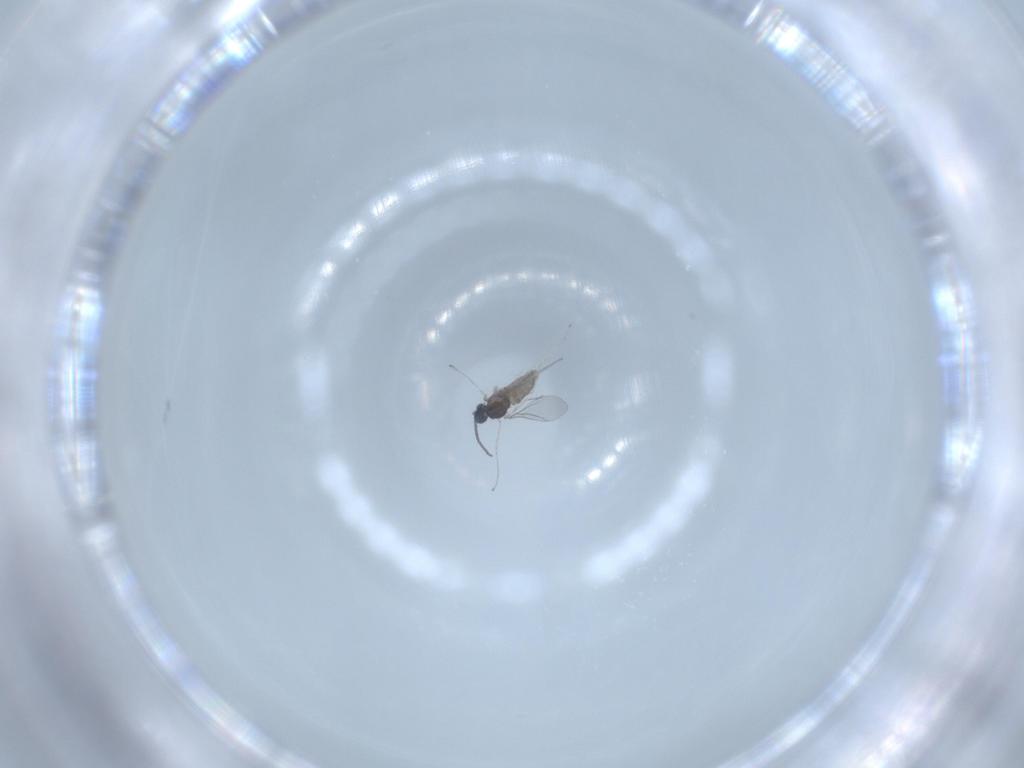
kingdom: Animalia
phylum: Arthropoda
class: Insecta
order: Diptera
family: Cecidomyiidae
